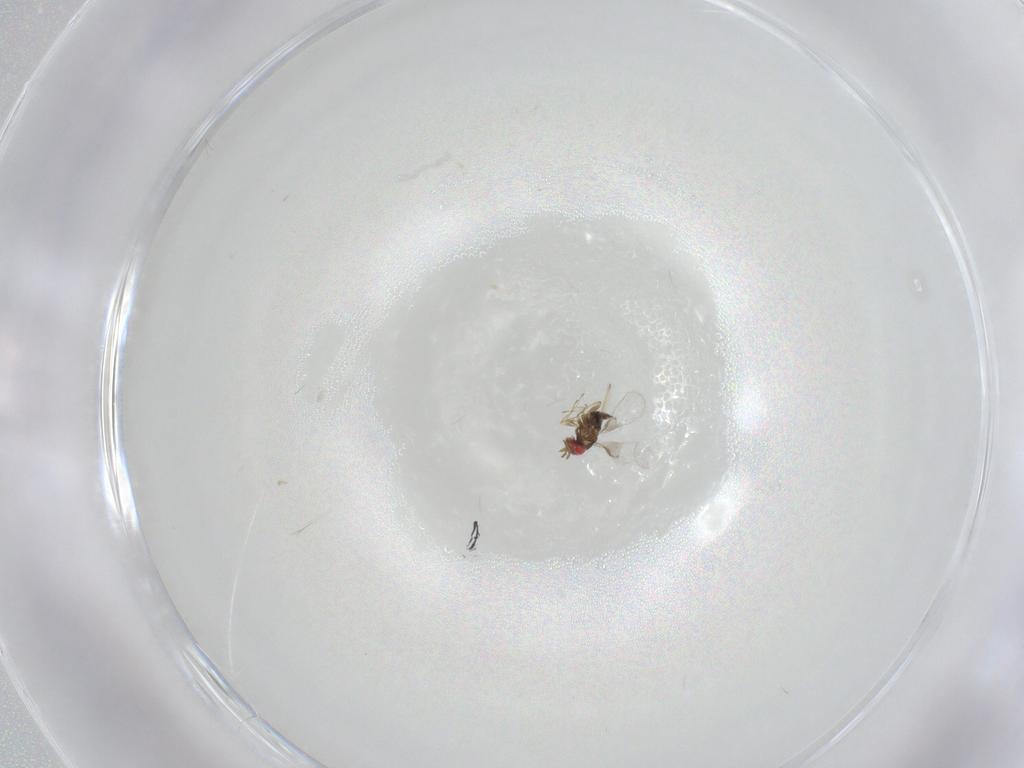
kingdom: Animalia
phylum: Arthropoda
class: Insecta
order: Hymenoptera
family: Trichogrammatidae
